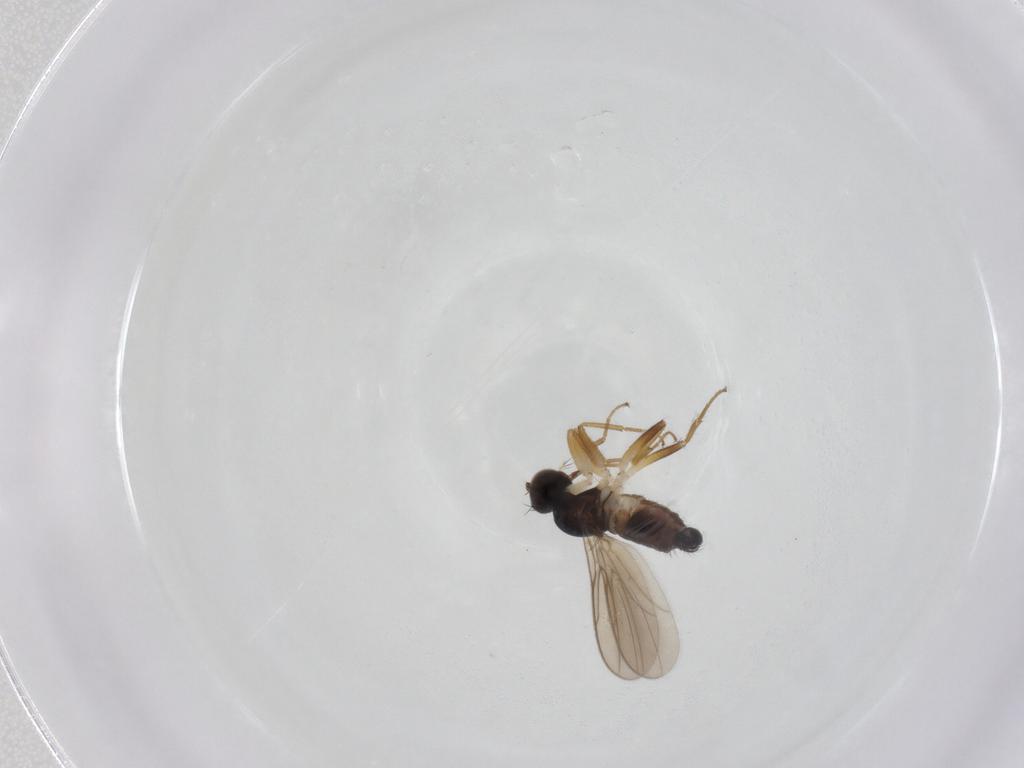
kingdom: Animalia
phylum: Arthropoda
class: Insecta
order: Diptera
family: Hybotidae
